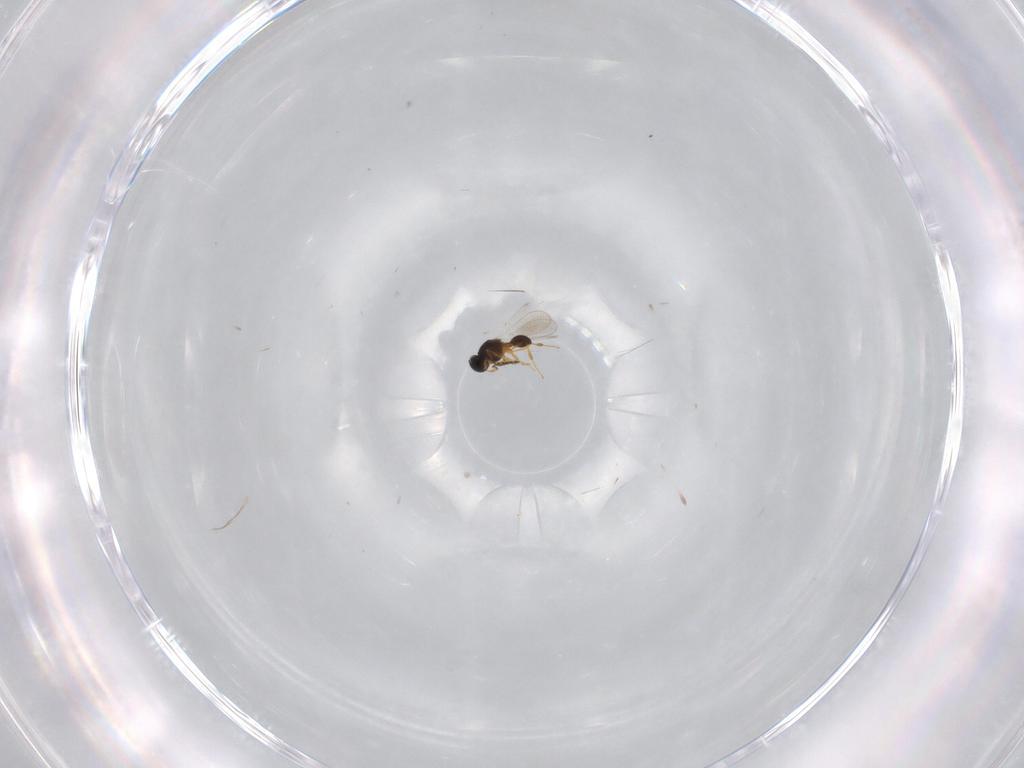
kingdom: Animalia
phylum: Arthropoda
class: Insecta
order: Hymenoptera
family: Platygastridae
